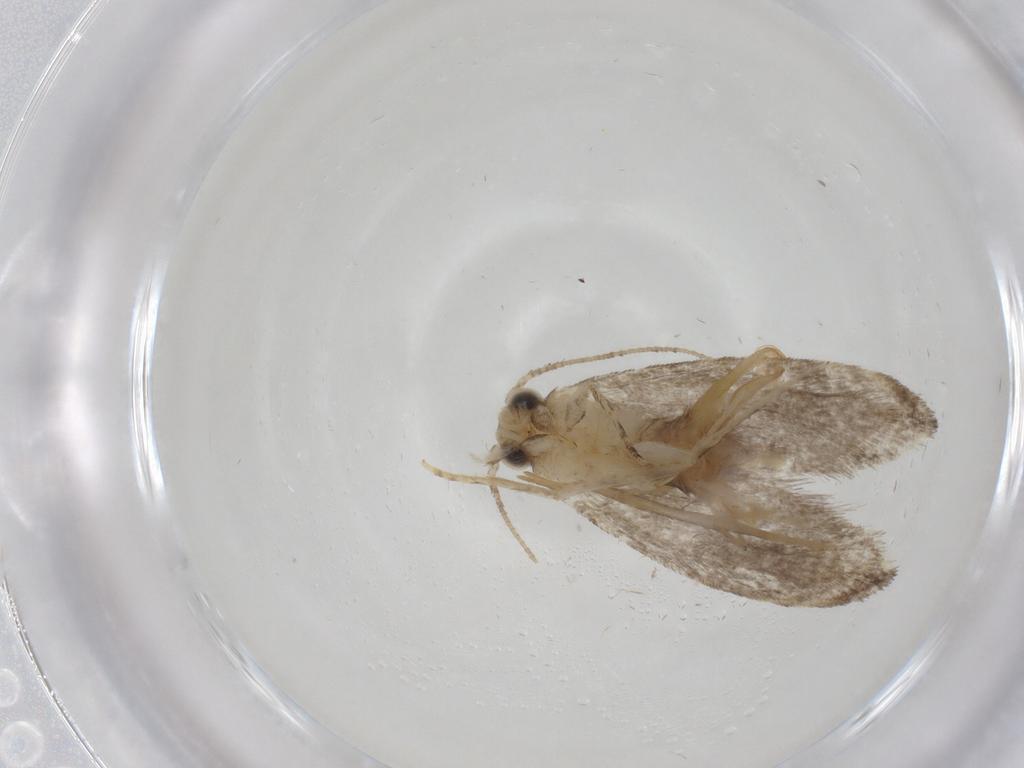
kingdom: Animalia
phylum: Arthropoda
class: Insecta
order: Lepidoptera
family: Tineidae
